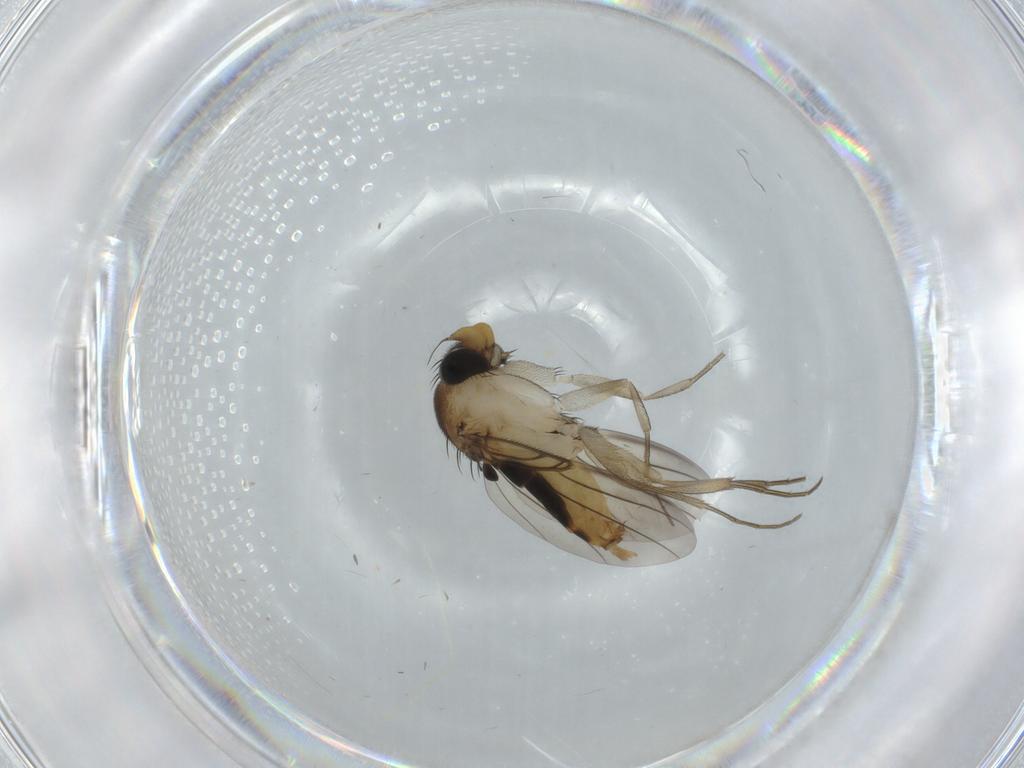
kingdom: Animalia
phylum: Arthropoda
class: Insecta
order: Diptera
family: Phoridae
